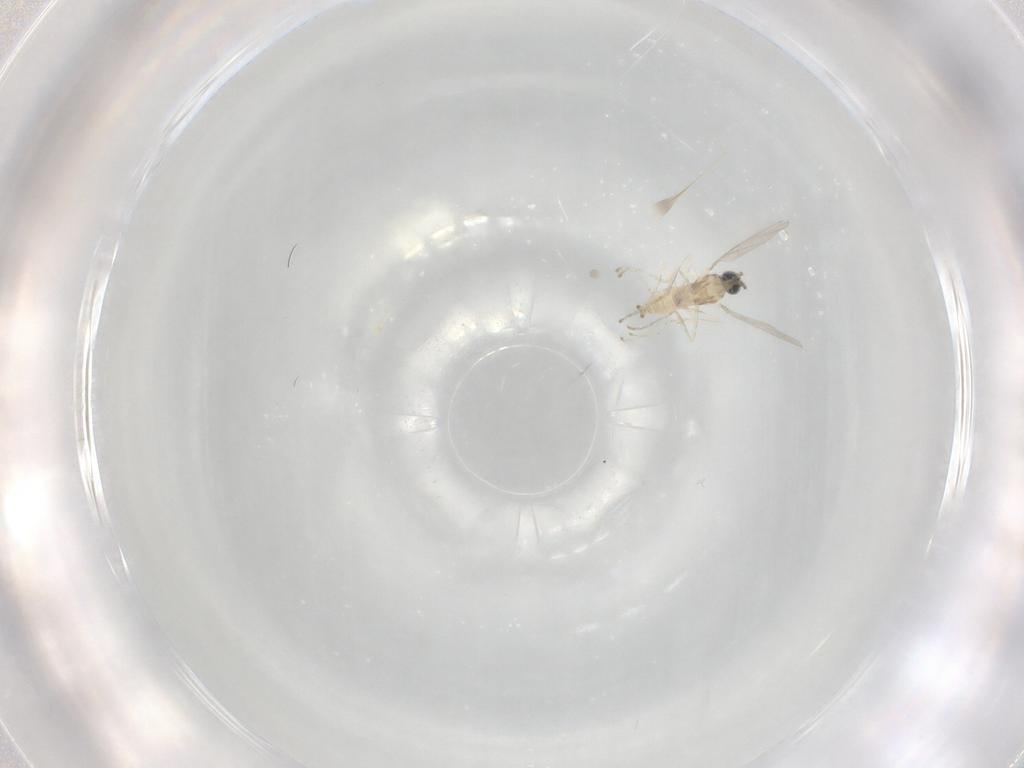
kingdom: Animalia
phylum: Arthropoda
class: Insecta
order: Diptera
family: Cecidomyiidae
